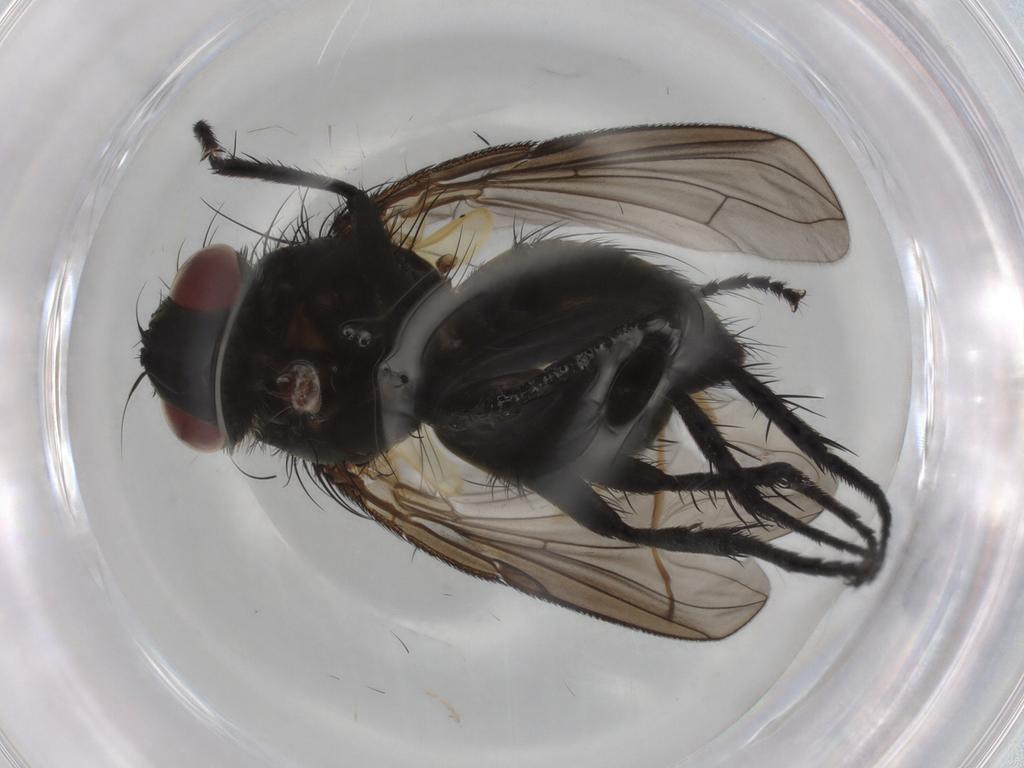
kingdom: Animalia
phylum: Arthropoda
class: Insecta
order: Diptera
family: Tachinidae
